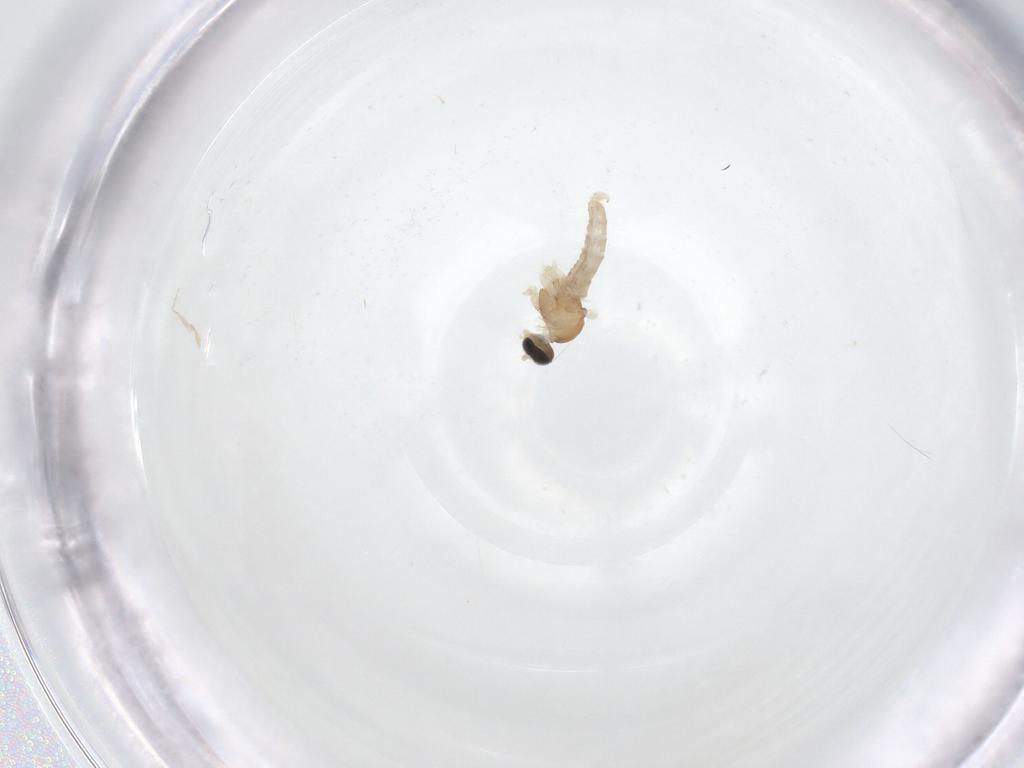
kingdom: Animalia
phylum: Arthropoda
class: Insecta
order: Diptera
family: Cecidomyiidae
